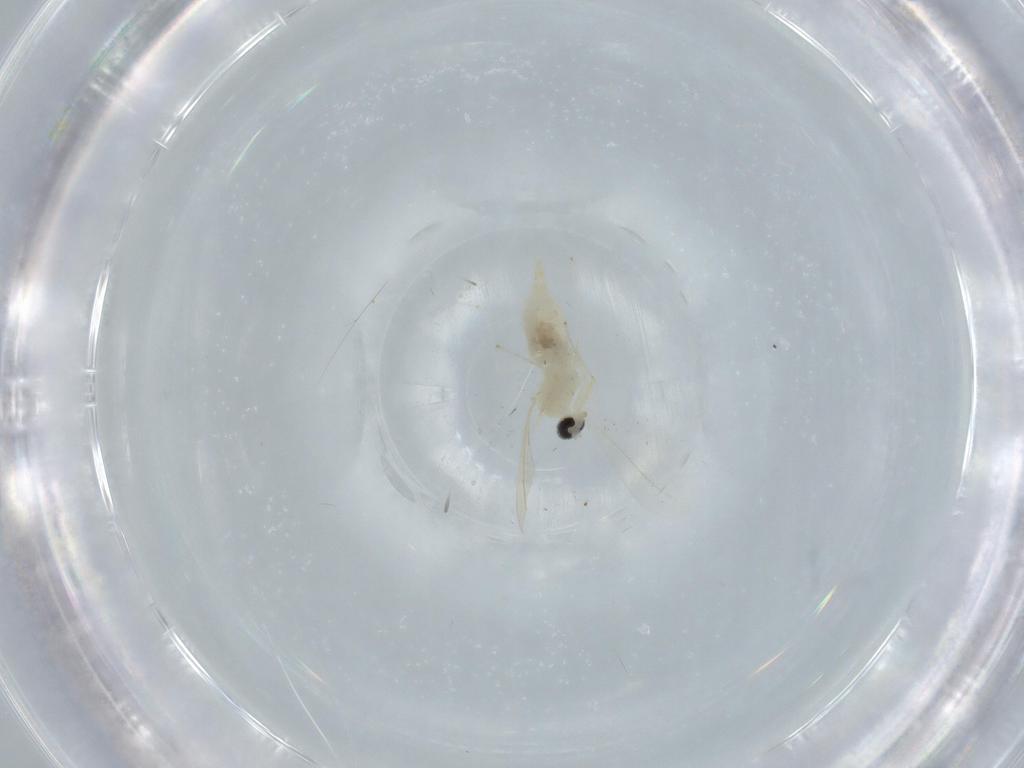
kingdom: Animalia
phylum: Arthropoda
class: Insecta
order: Diptera
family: Cecidomyiidae
